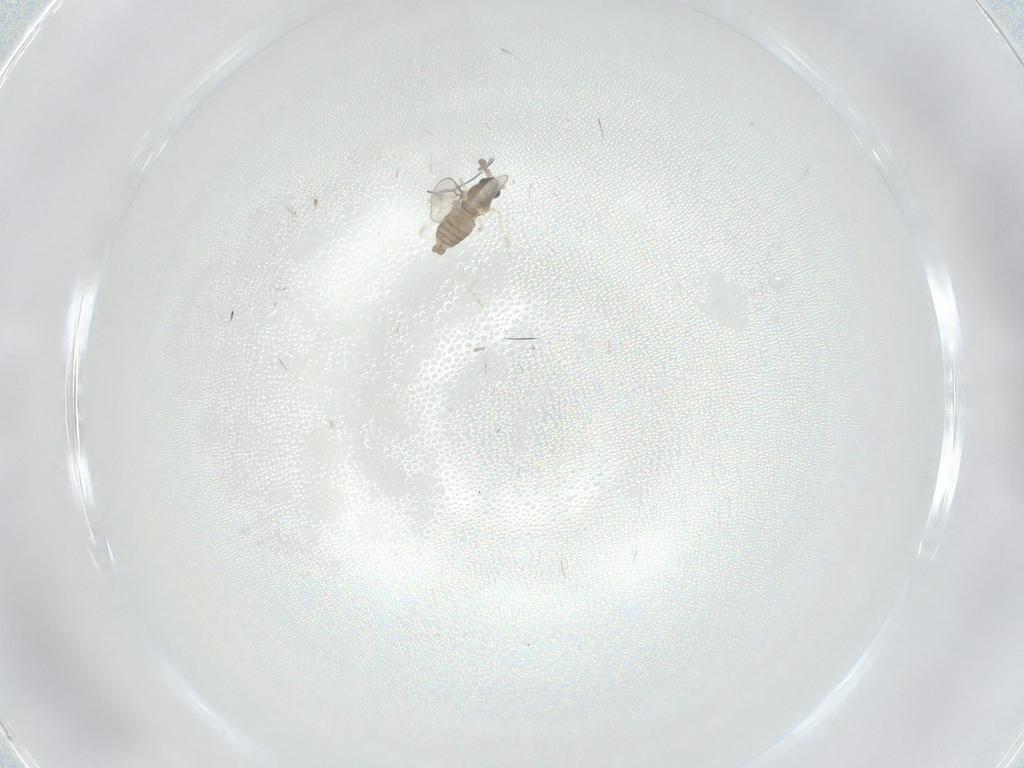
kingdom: Animalia
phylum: Arthropoda
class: Insecta
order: Diptera
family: Cecidomyiidae
